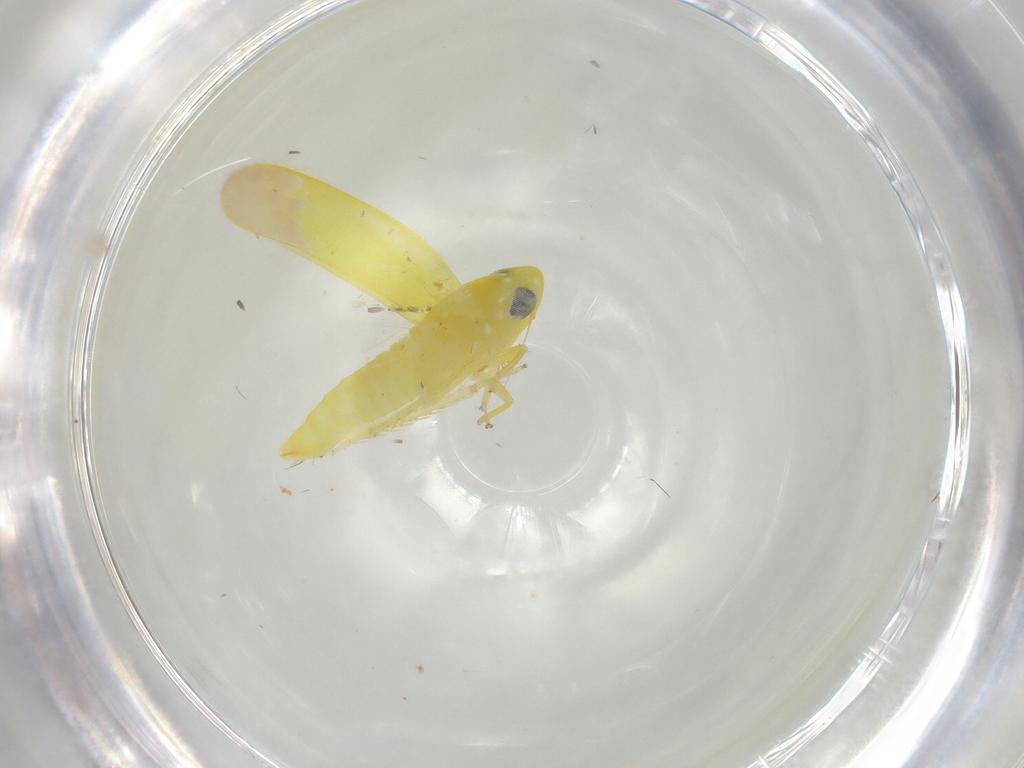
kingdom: Animalia
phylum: Arthropoda
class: Insecta
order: Hemiptera
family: Cicadellidae
